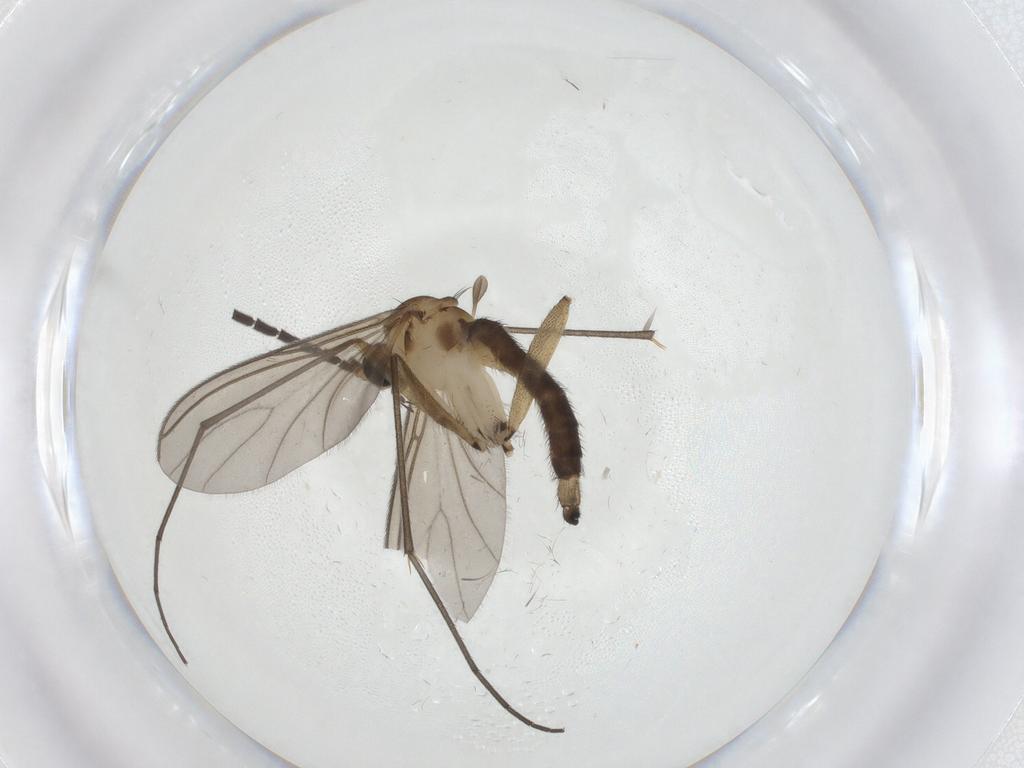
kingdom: Animalia
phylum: Arthropoda
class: Insecta
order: Diptera
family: Sciaridae
